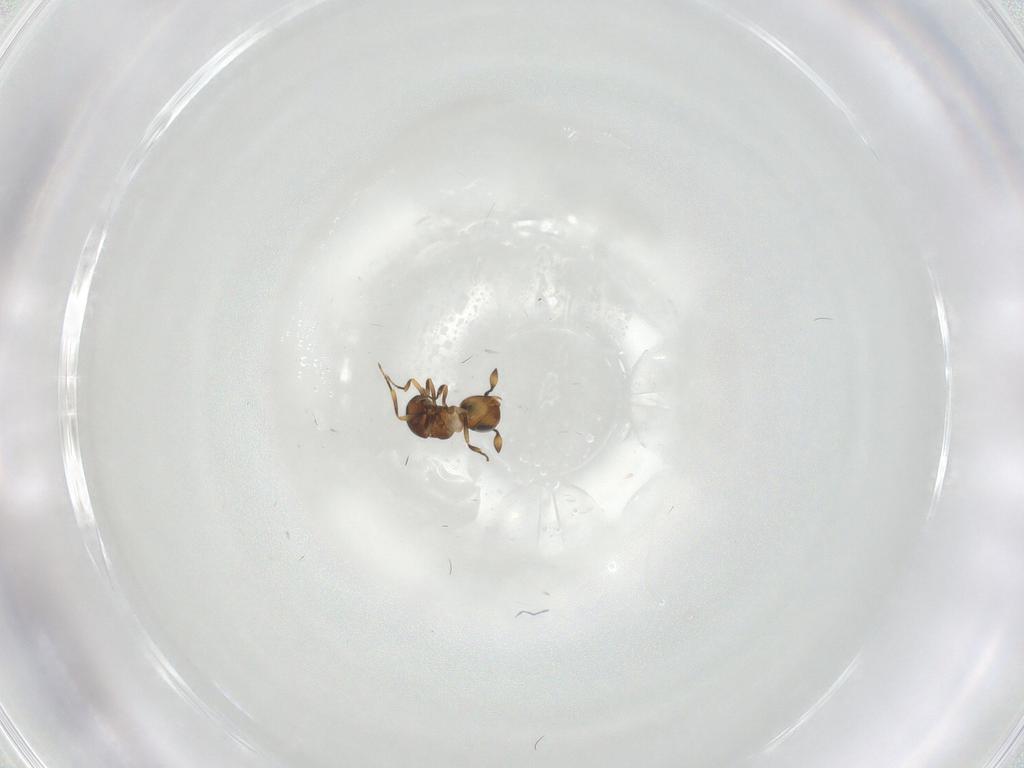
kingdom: Animalia
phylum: Arthropoda
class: Insecta
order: Hymenoptera
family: Scelionidae
